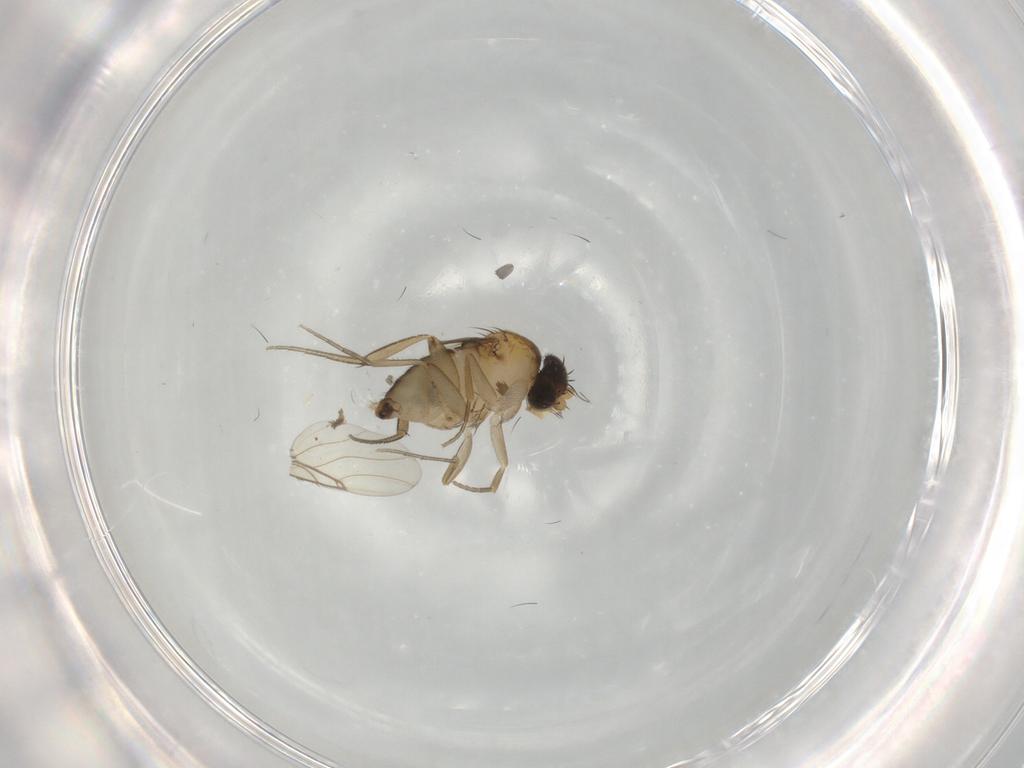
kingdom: Animalia
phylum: Arthropoda
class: Insecta
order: Diptera
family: Phoridae
